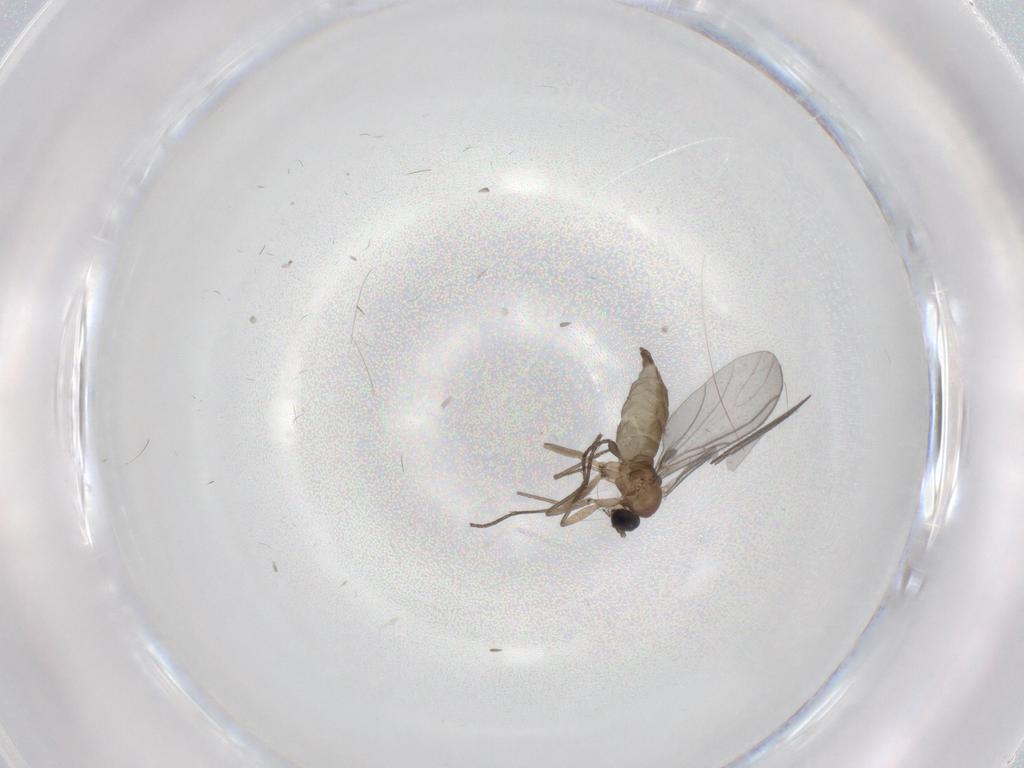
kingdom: Animalia
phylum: Arthropoda
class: Insecta
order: Diptera
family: Sciaridae
